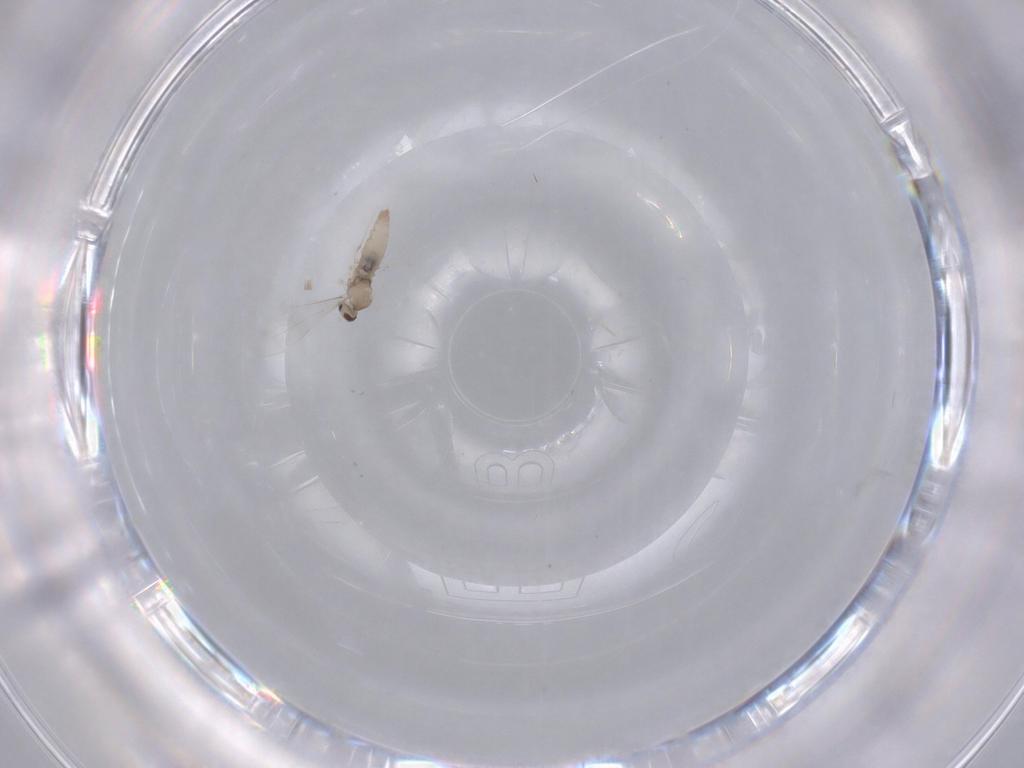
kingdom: Animalia
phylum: Arthropoda
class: Insecta
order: Diptera
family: Cecidomyiidae
